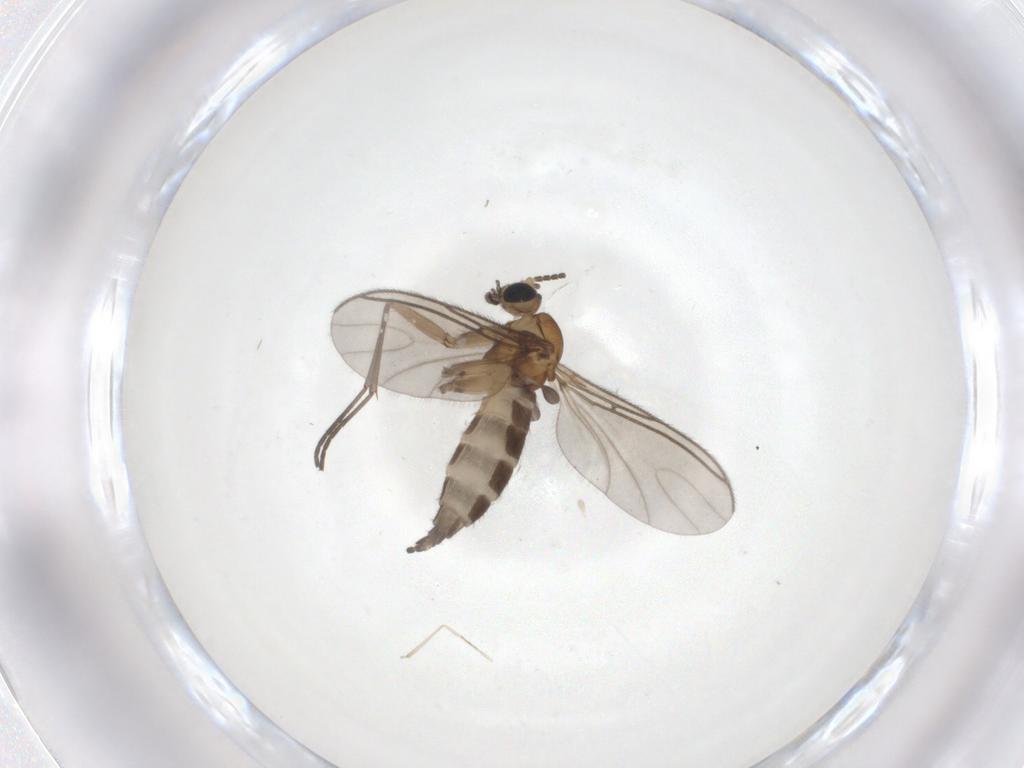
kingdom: Animalia
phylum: Arthropoda
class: Insecta
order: Diptera
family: Sciaridae
